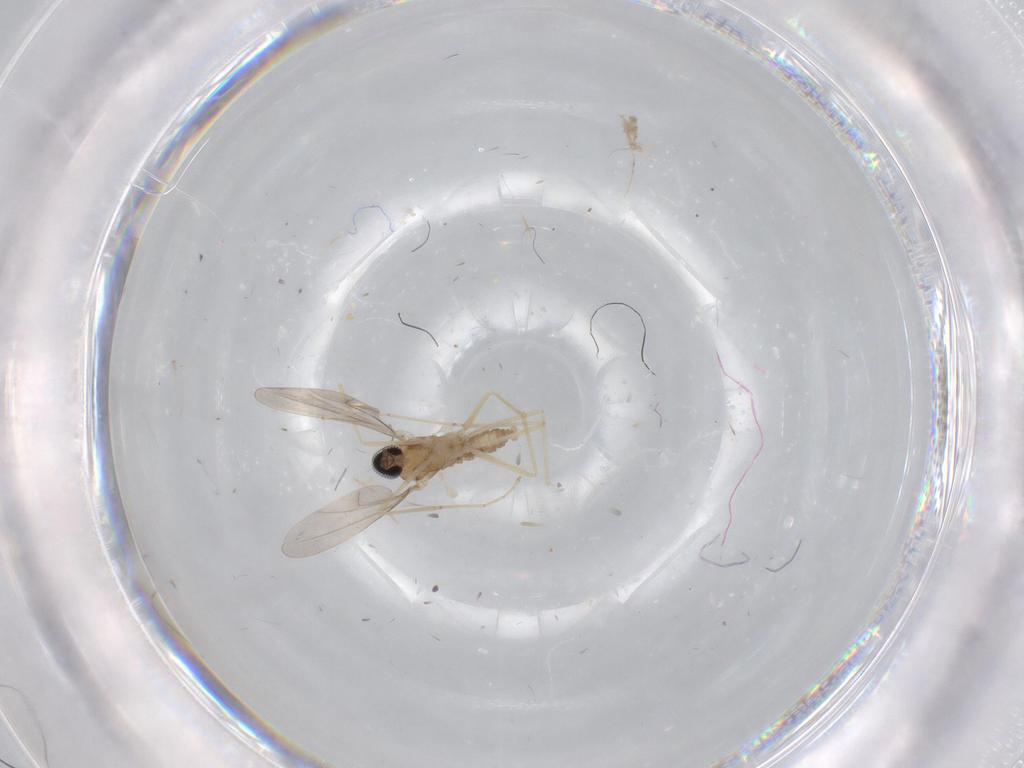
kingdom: Animalia
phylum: Arthropoda
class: Insecta
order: Diptera
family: Cecidomyiidae
